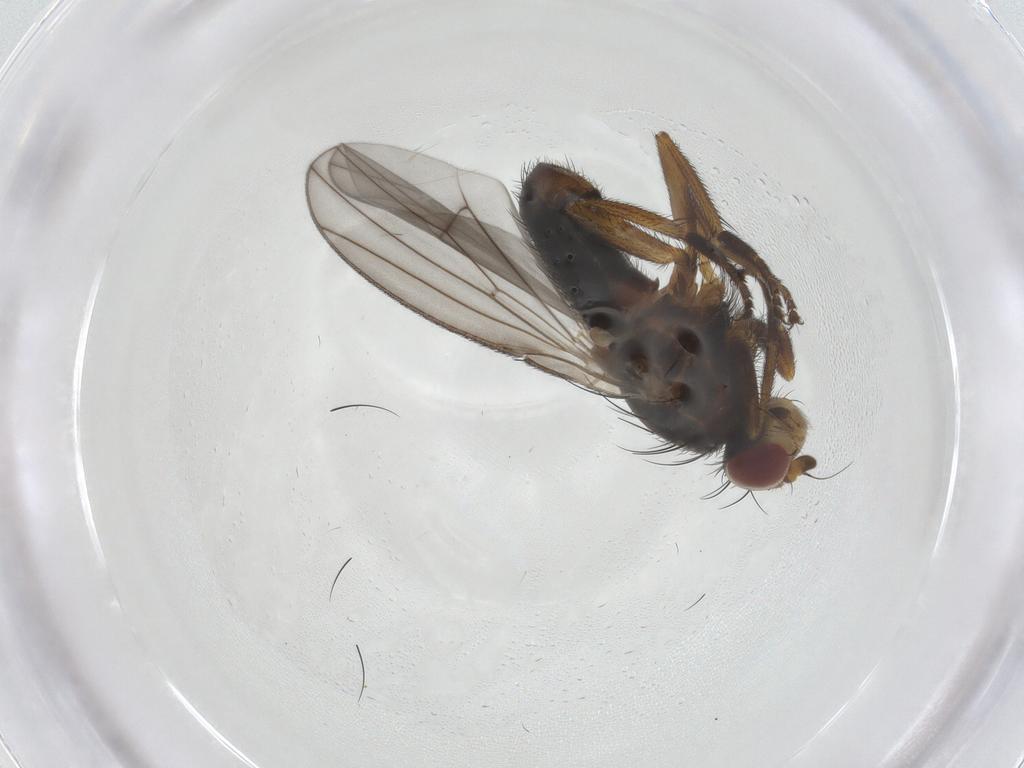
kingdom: Animalia
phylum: Arthropoda
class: Insecta
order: Diptera
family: Heleomyzidae
